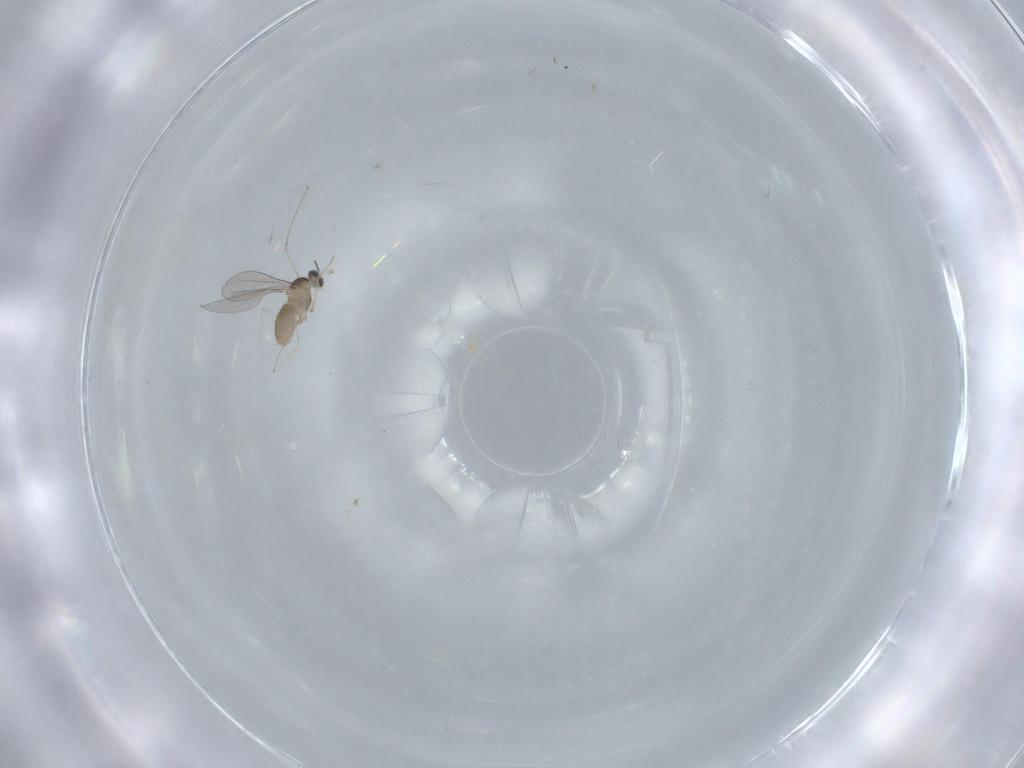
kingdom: Animalia
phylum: Arthropoda
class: Insecta
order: Diptera
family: Cecidomyiidae
